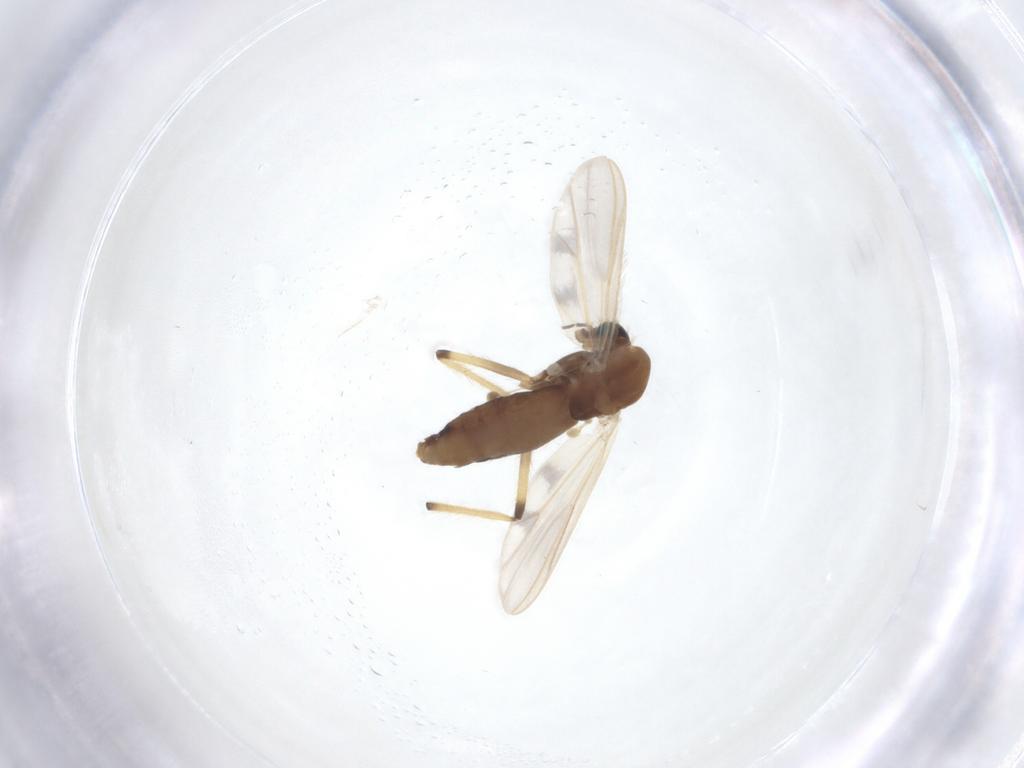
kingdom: Animalia
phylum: Arthropoda
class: Insecta
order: Diptera
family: Chironomidae
